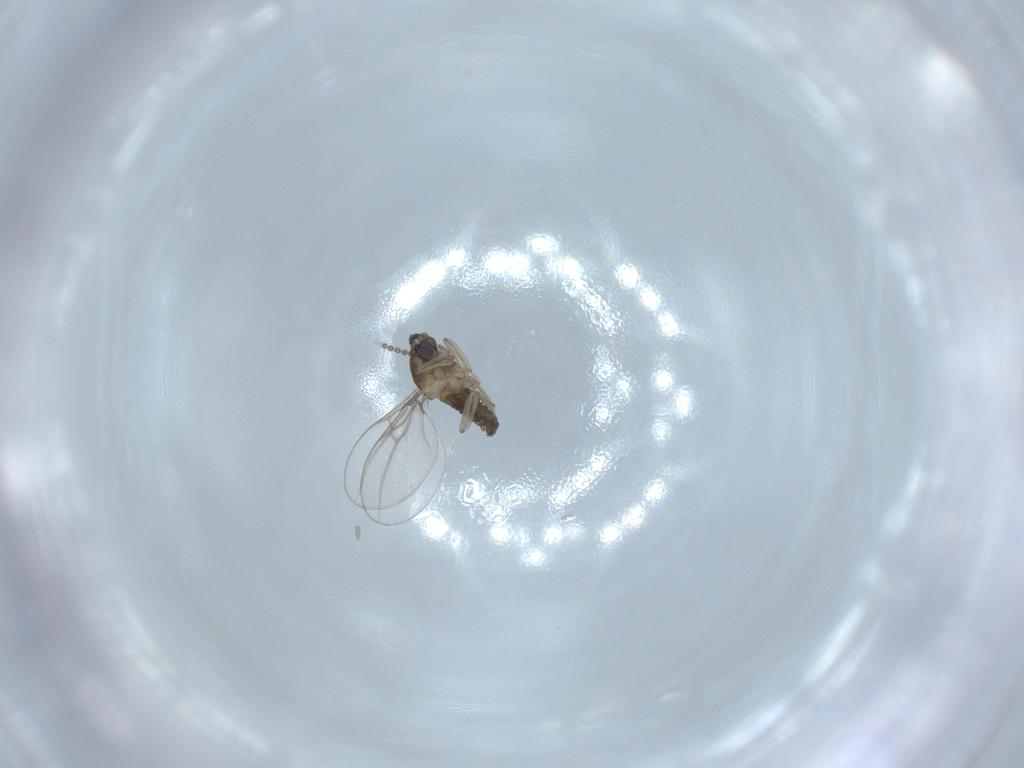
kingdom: Animalia
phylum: Arthropoda
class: Insecta
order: Diptera
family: Cecidomyiidae
